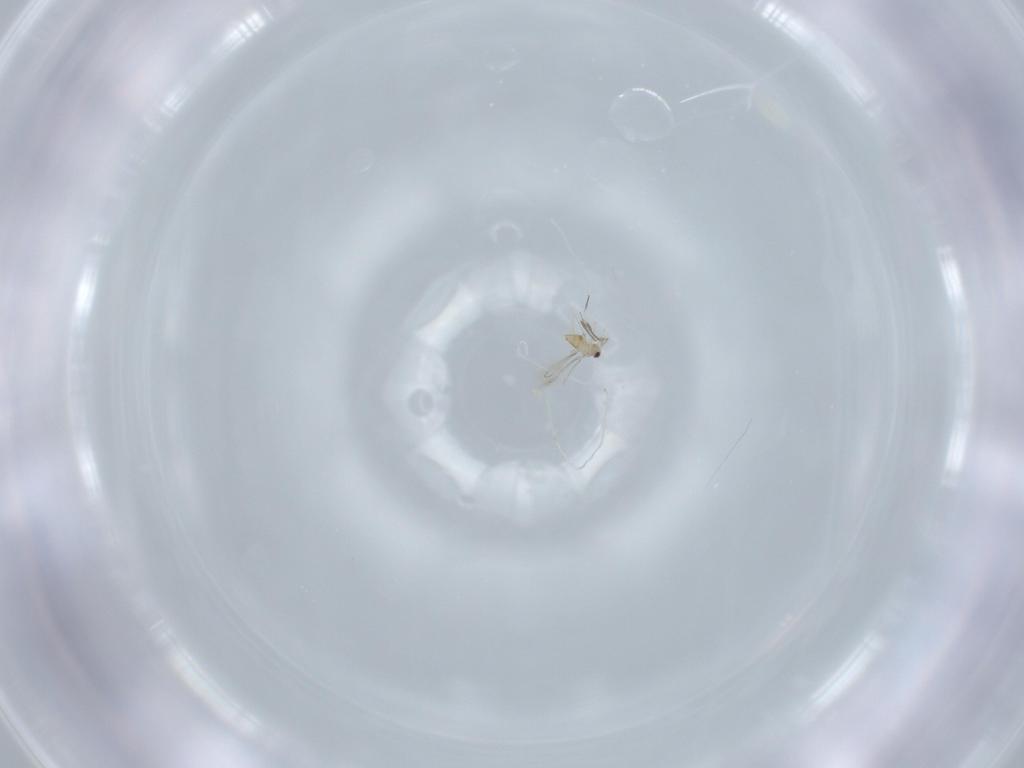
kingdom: Animalia
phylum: Arthropoda
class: Insecta
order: Hymenoptera
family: Mymaridae
